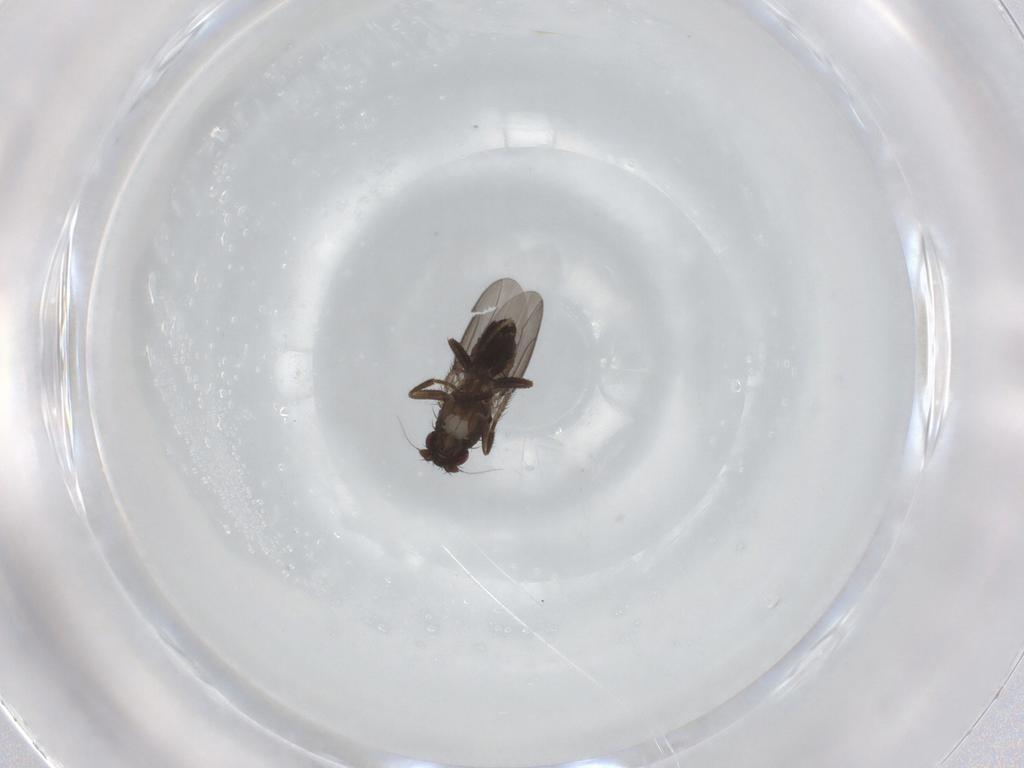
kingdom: Animalia
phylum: Arthropoda
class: Insecta
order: Diptera
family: Sphaeroceridae
